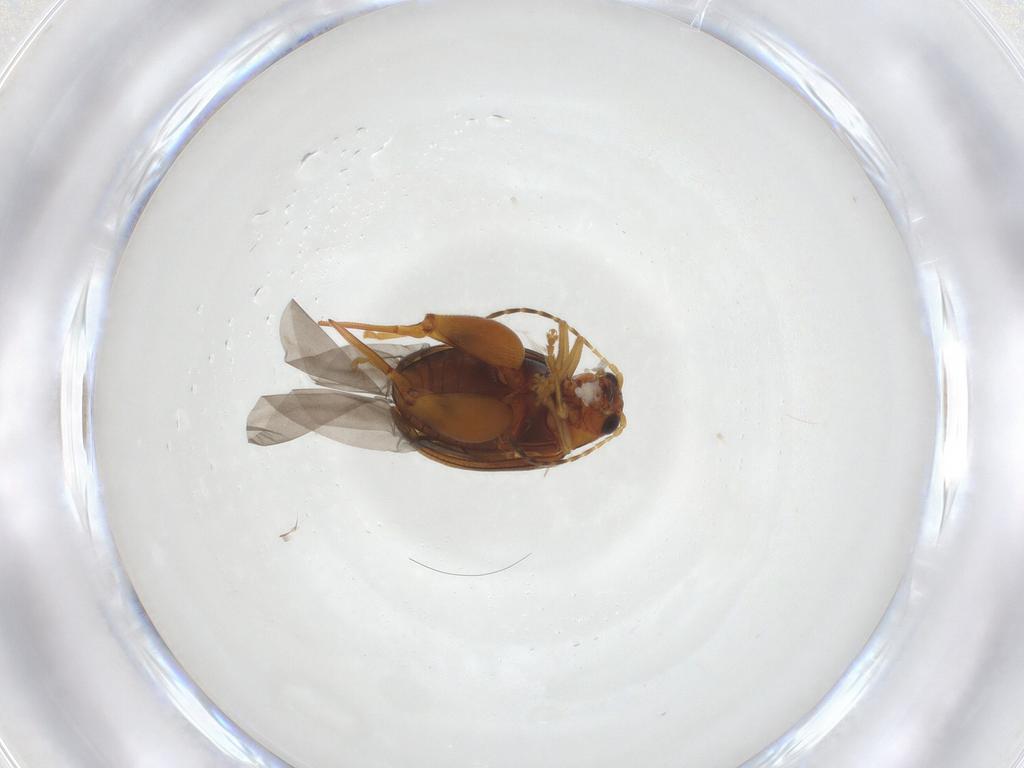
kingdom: Animalia
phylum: Arthropoda
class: Insecta
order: Coleoptera
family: Chrysomelidae
